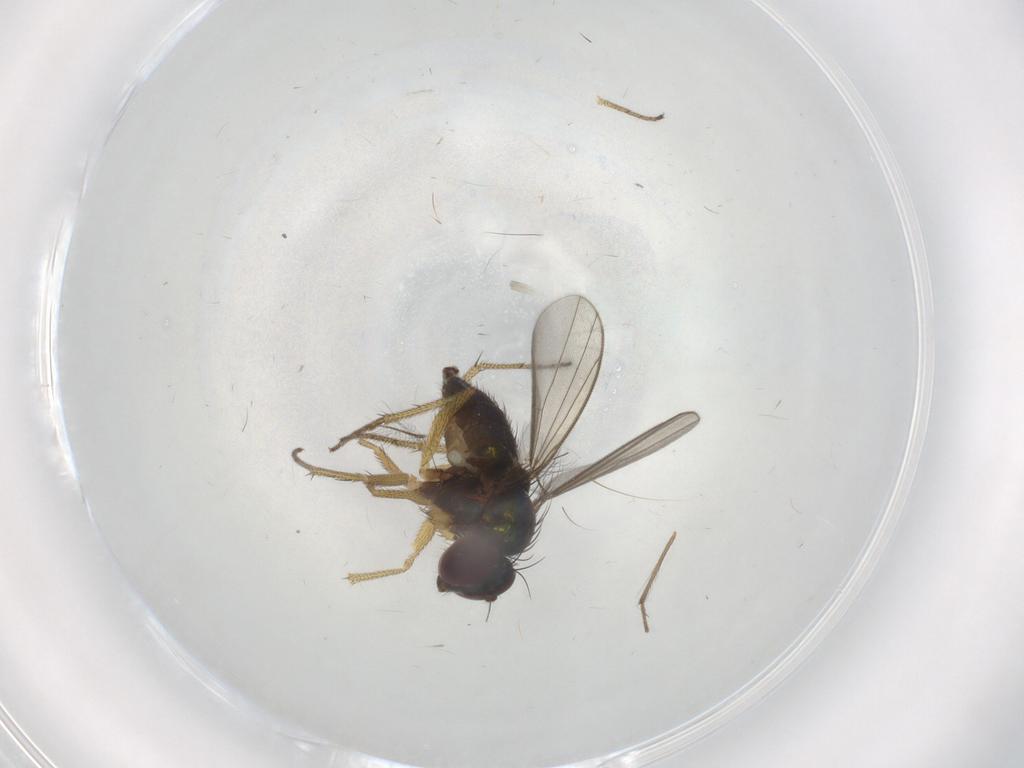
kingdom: Animalia
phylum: Arthropoda
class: Insecta
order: Diptera
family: Dolichopodidae
